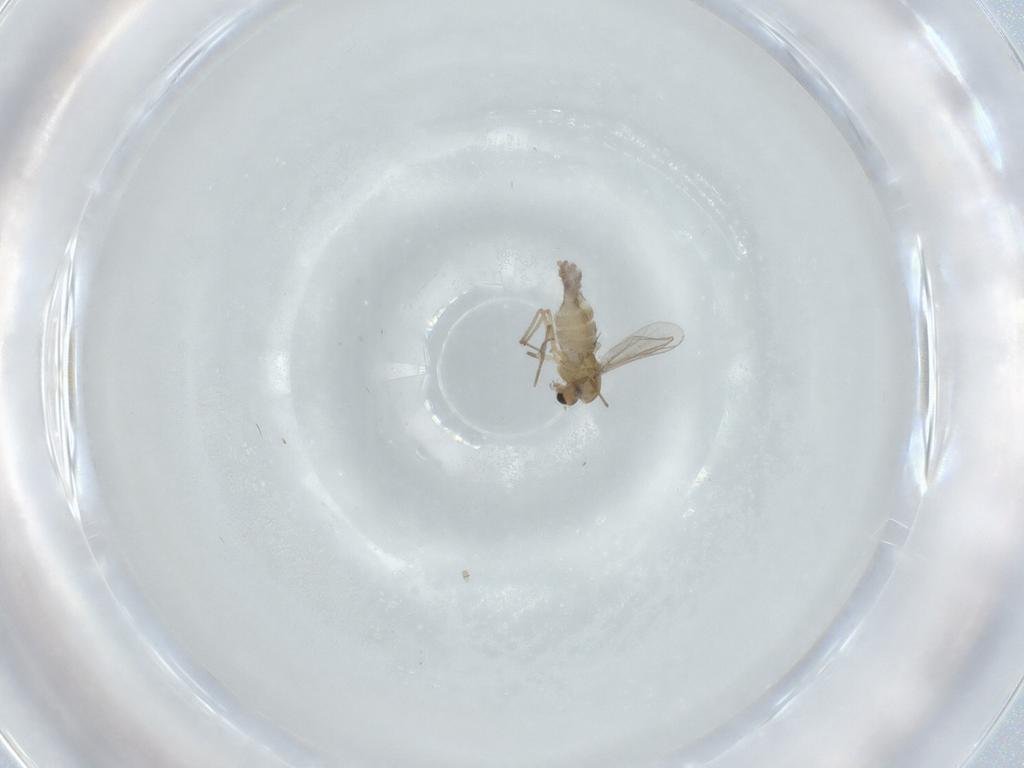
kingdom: Animalia
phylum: Arthropoda
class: Insecta
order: Diptera
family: Chironomidae
